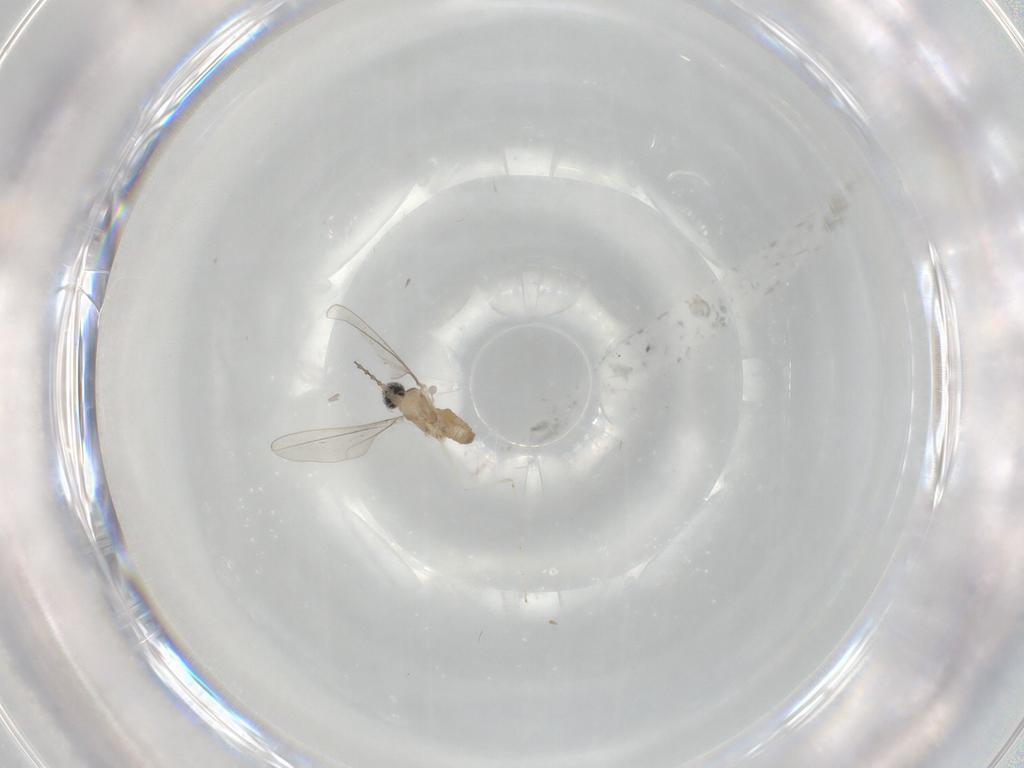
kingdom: Animalia
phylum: Arthropoda
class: Insecta
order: Diptera
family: Cecidomyiidae
